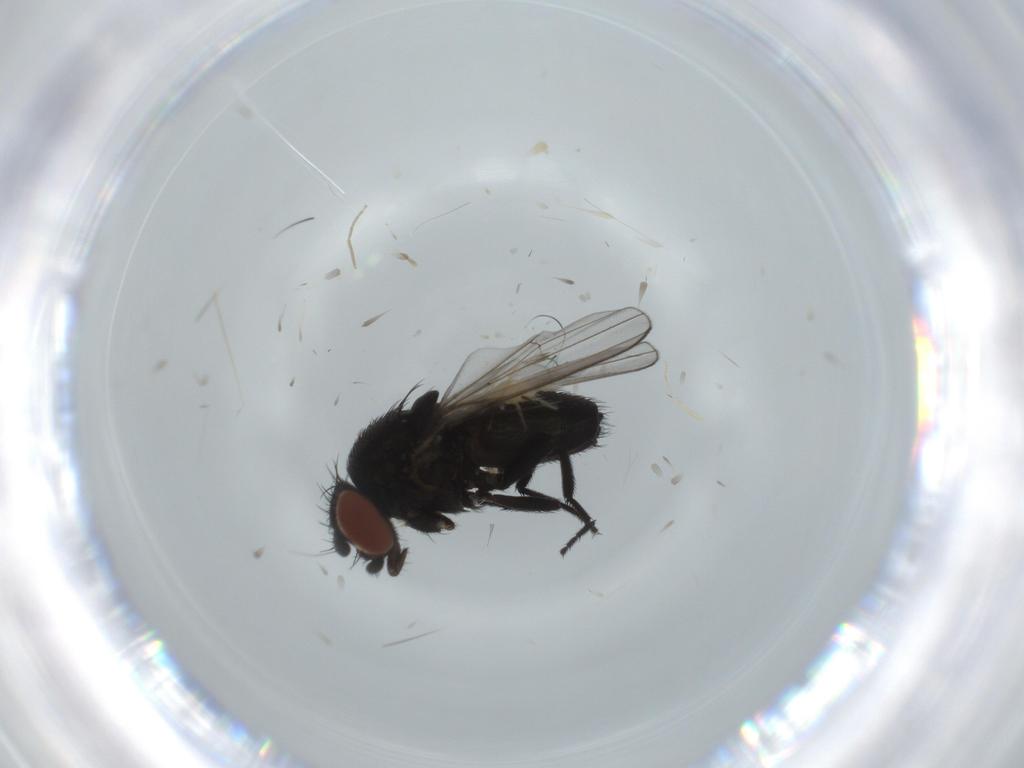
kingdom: Animalia
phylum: Arthropoda
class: Insecta
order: Diptera
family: Milichiidae
